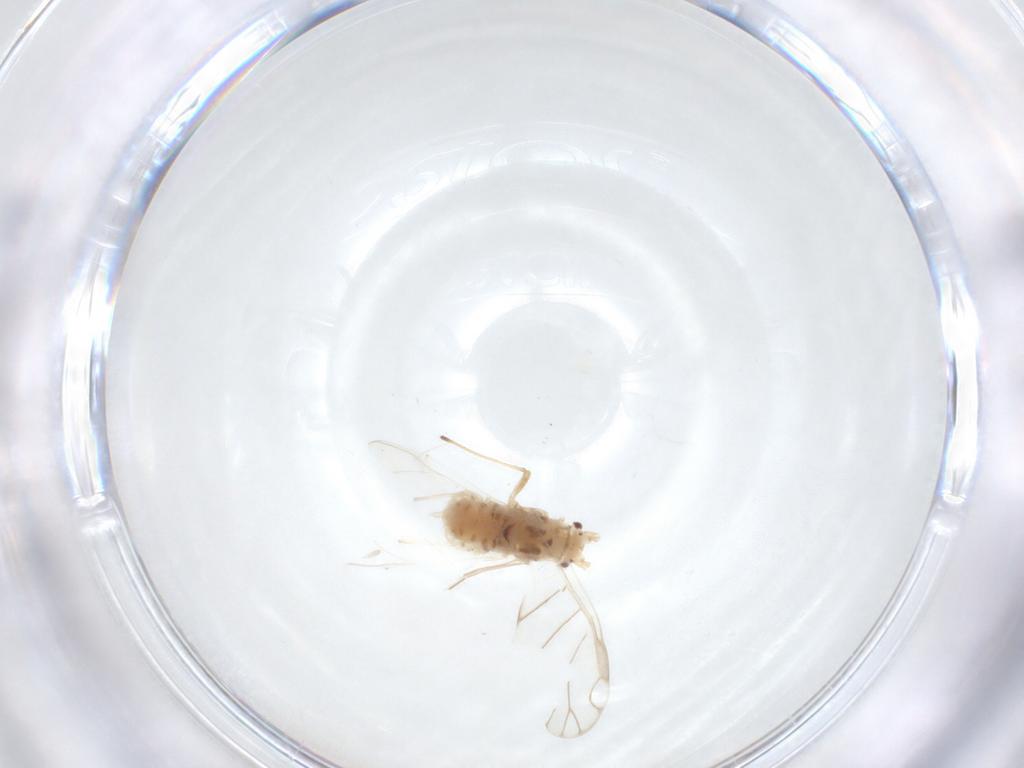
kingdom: Animalia
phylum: Arthropoda
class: Insecta
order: Hemiptera
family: Aphididae
